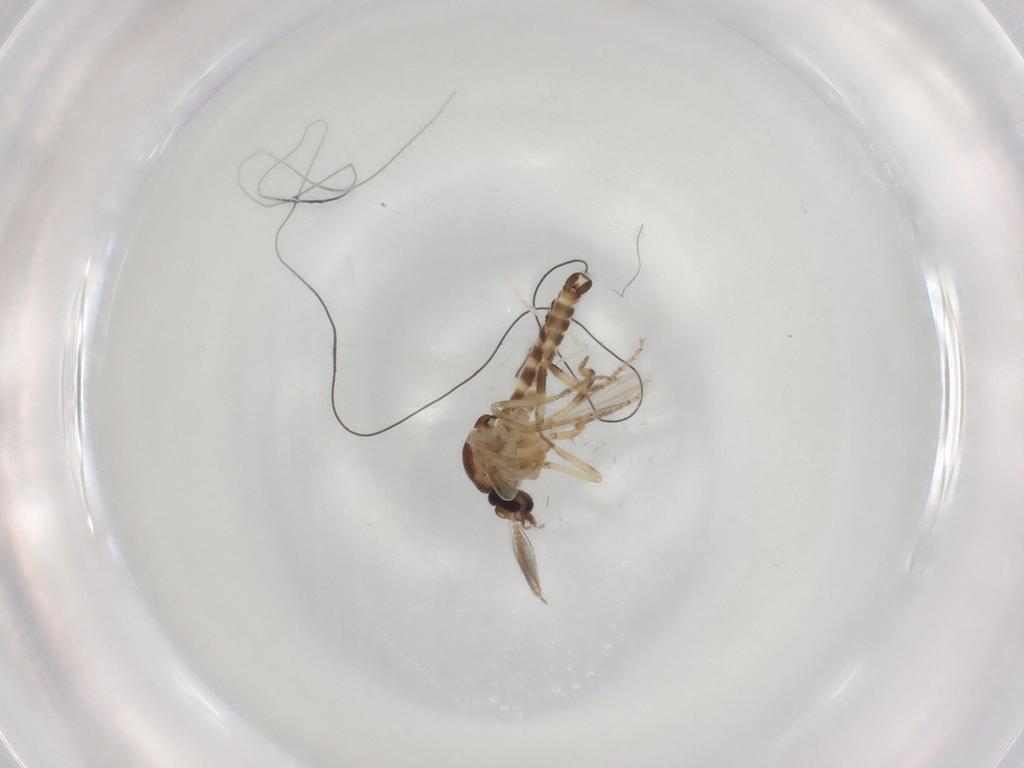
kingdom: Animalia
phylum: Arthropoda
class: Insecta
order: Diptera
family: Ceratopogonidae
